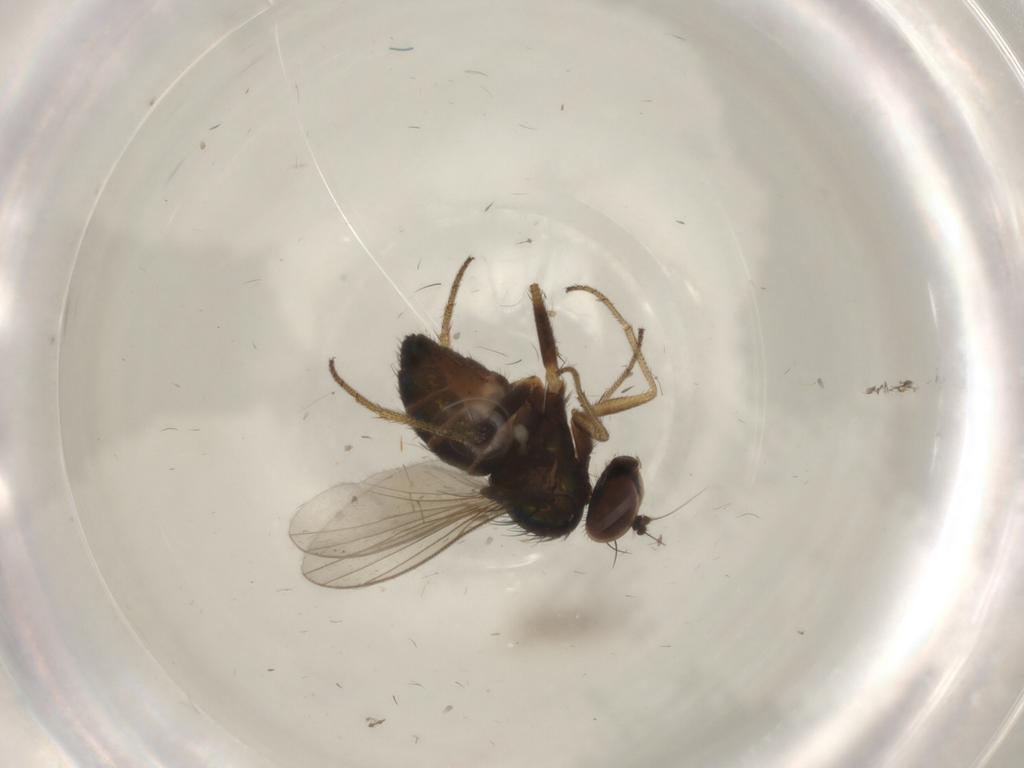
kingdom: Animalia
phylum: Arthropoda
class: Insecta
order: Diptera
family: Cecidomyiidae
